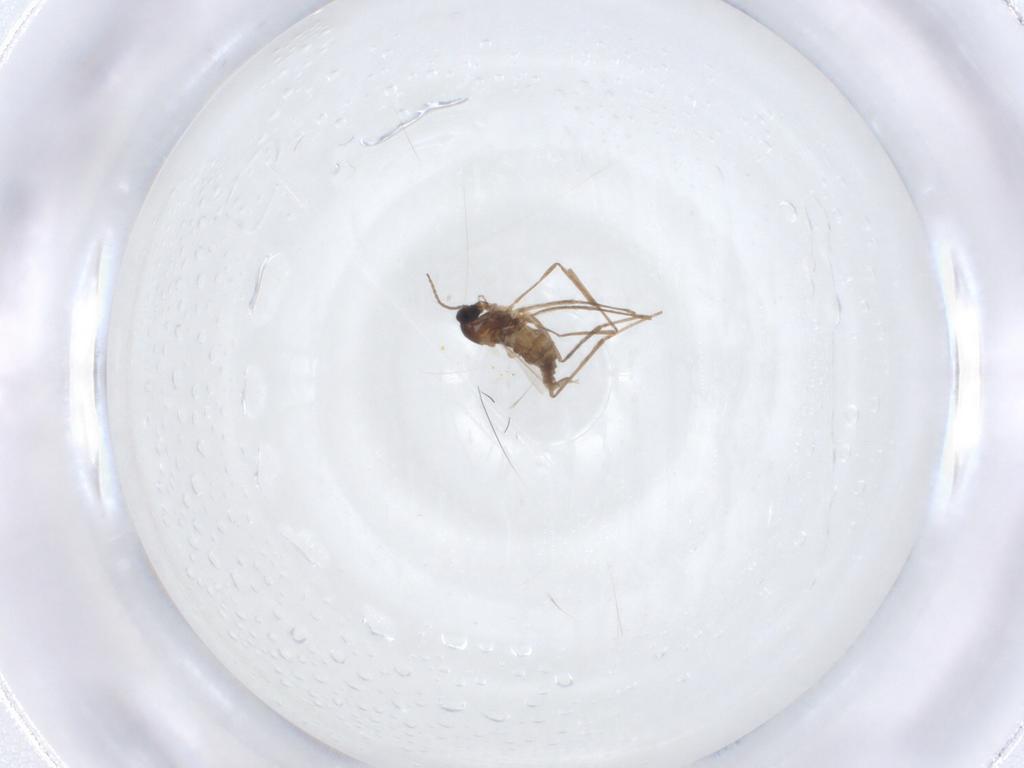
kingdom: Animalia
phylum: Arthropoda
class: Insecta
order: Diptera
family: Cecidomyiidae
